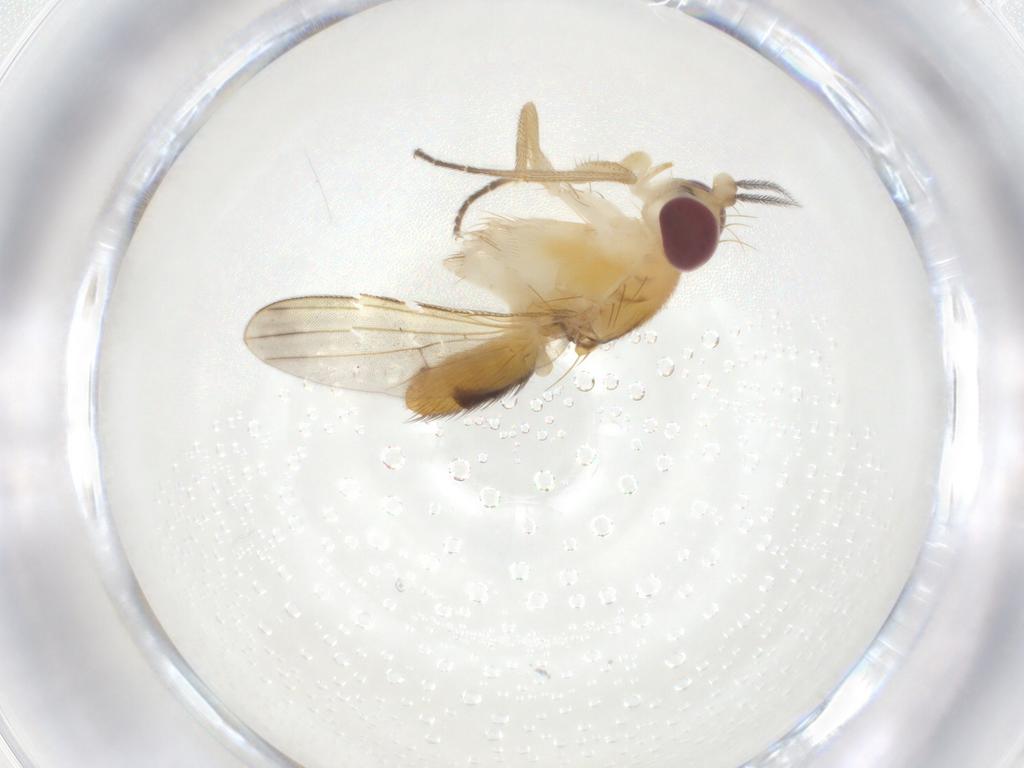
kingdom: Animalia
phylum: Arthropoda
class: Insecta
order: Diptera
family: Clusiidae
